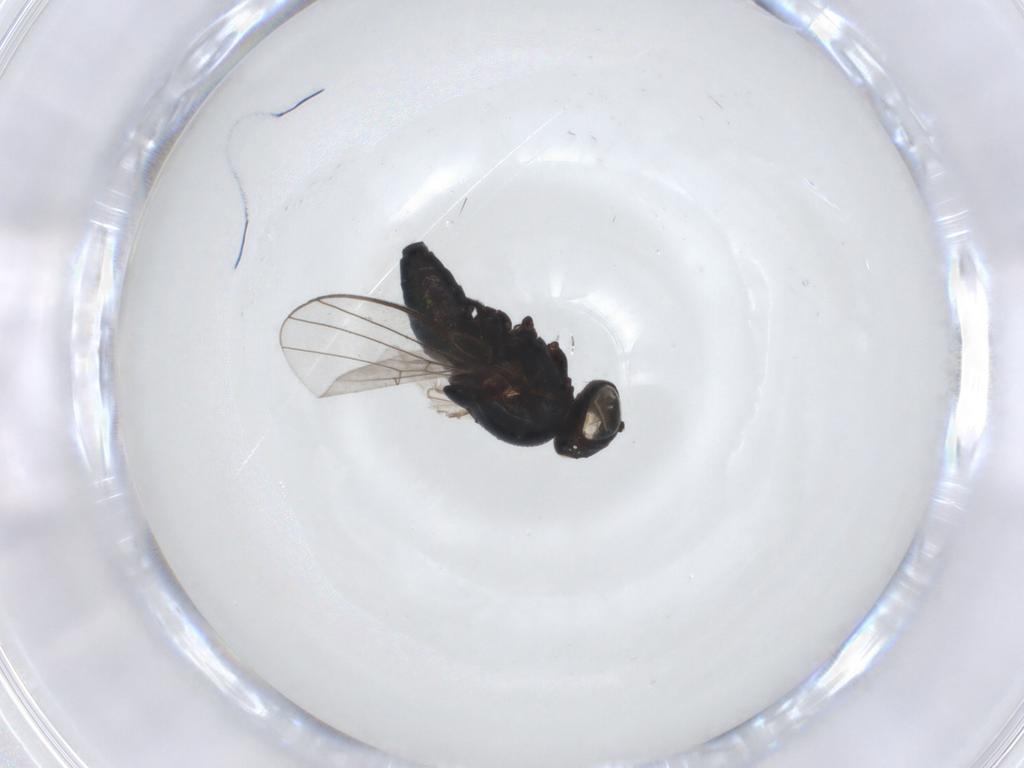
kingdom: Animalia
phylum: Arthropoda
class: Insecta
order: Diptera
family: Agromyzidae
